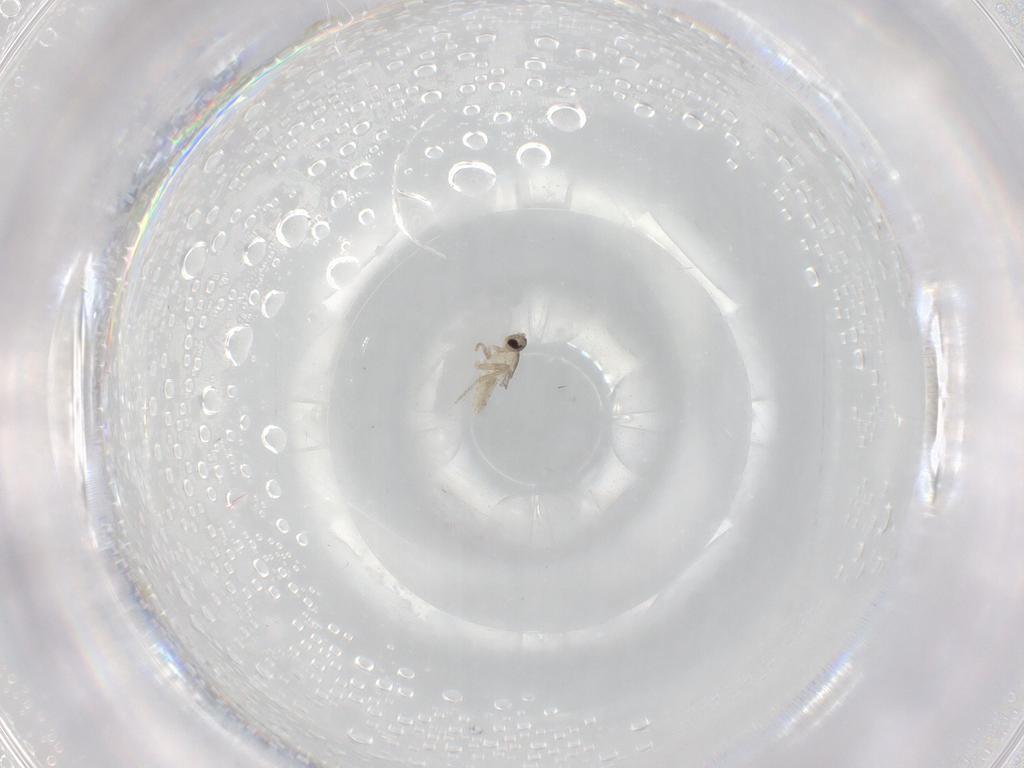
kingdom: Animalia
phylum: Arthropoda
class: Insecta
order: Diptera
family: Cecidomyiidae
